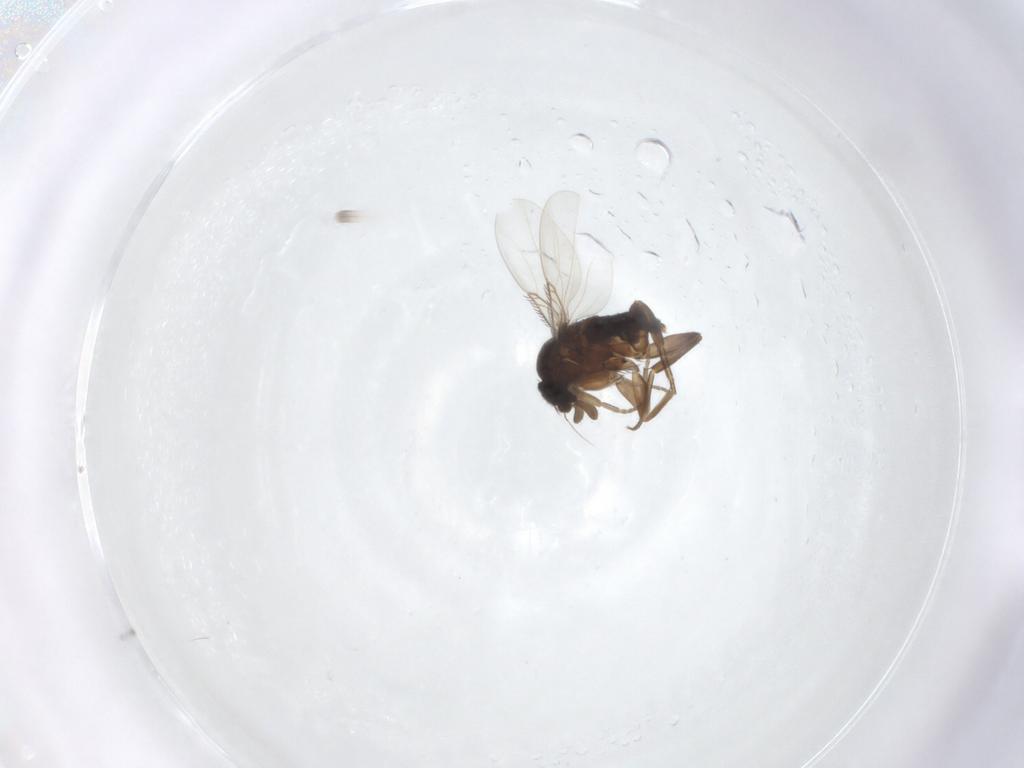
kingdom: Animalia
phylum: Arthropoda
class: Insecta
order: Diptera
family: Phoridae
